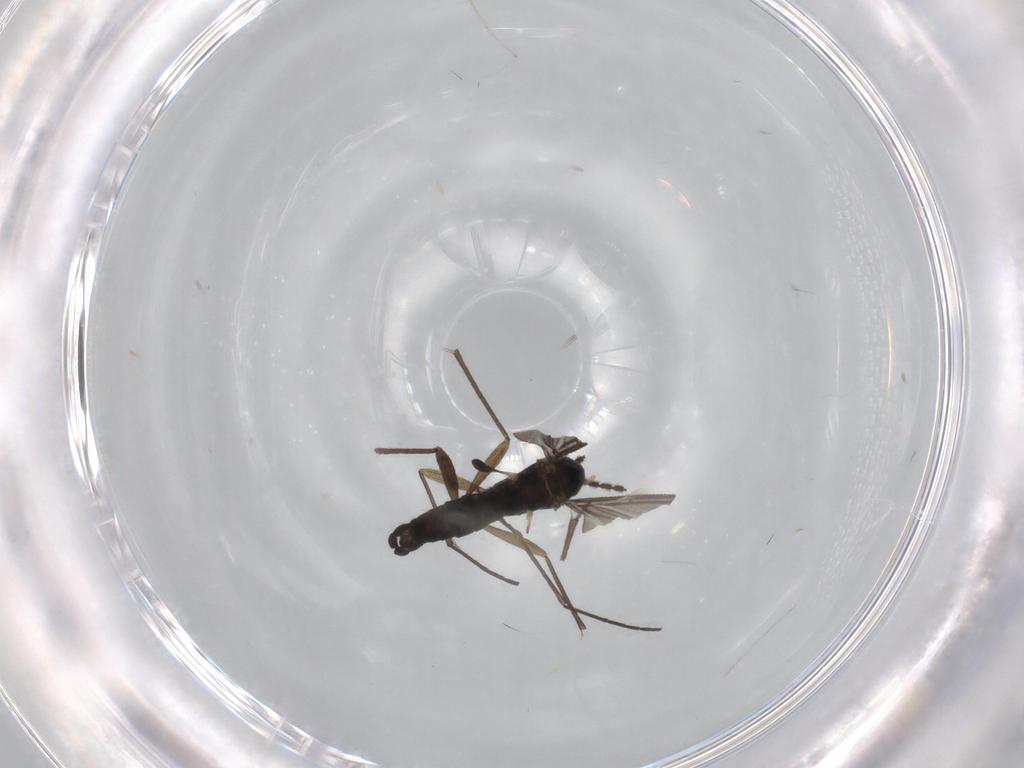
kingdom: Animalia
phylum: Arthropoda
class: Insecta
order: Diptera
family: Sciaridae
